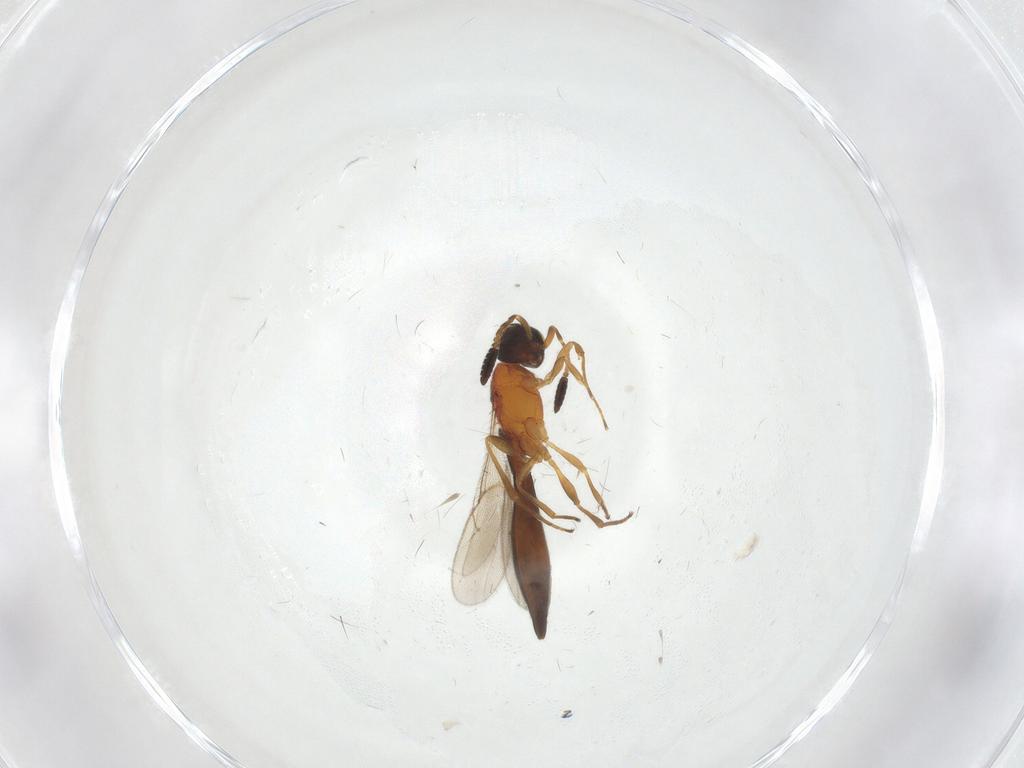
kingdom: Animalia
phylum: Arthropoda
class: Insecta
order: Hymenoptera
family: Scelionidae
